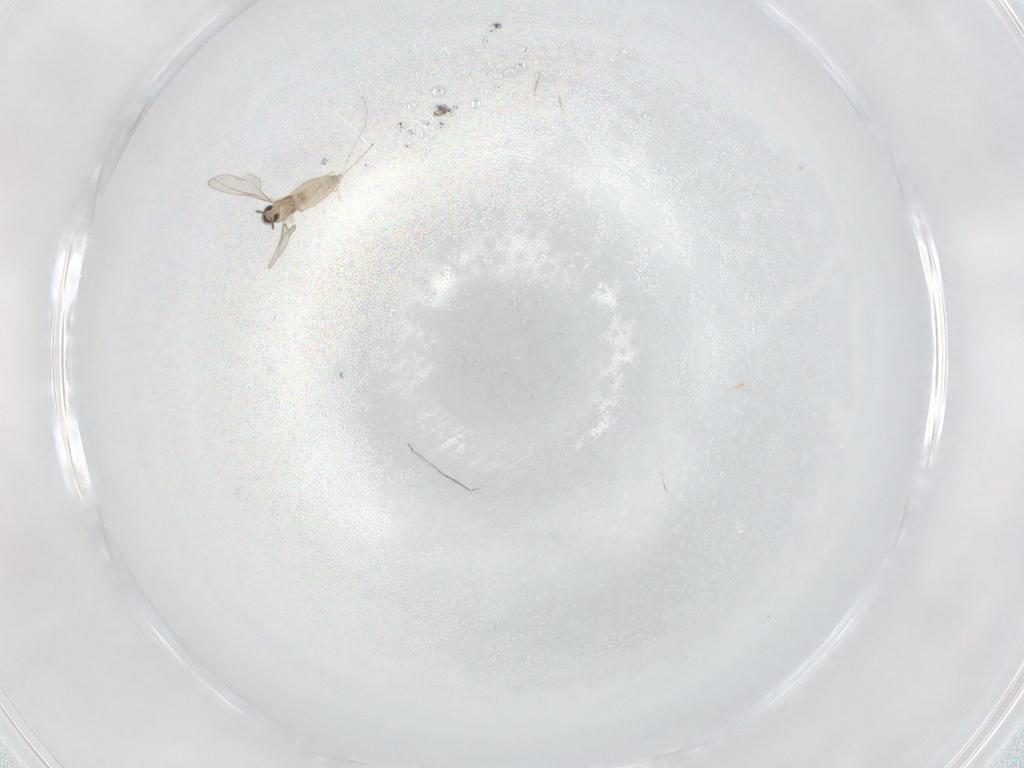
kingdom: Animalia
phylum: Arthropoda
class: Insecta
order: Diptera
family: Cecidomyiidae
